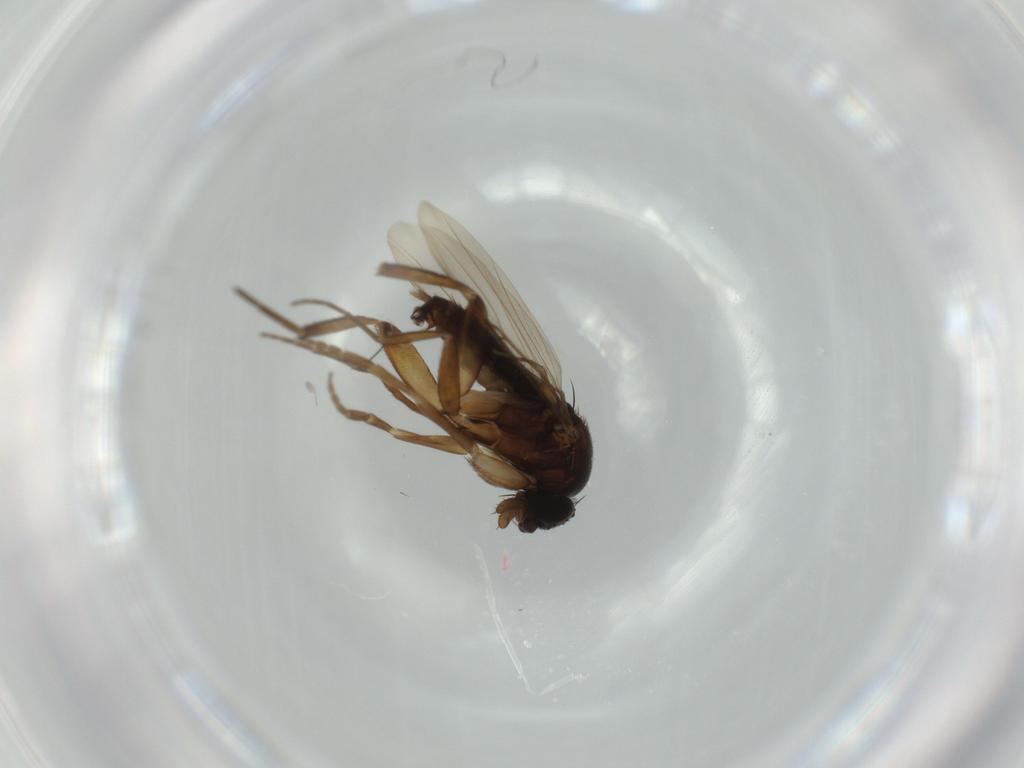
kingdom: Animalia
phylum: Arthropoda
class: Insecta
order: Diptera
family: Phoridae
